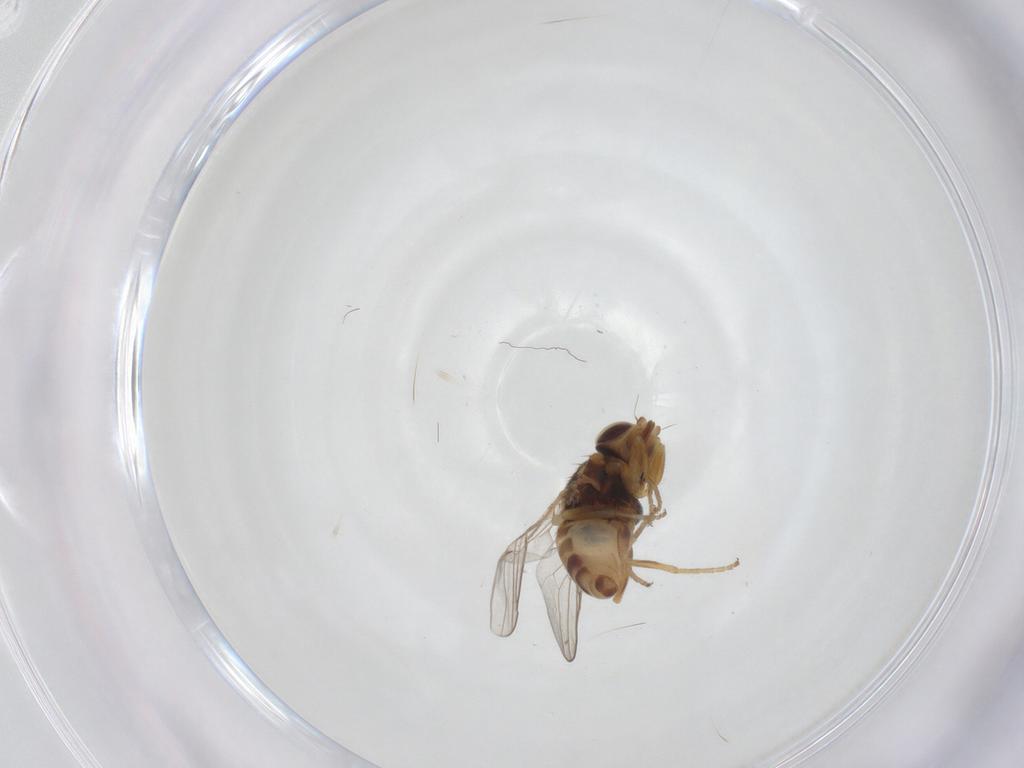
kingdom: Animalia
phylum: Arthropoda
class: Insecta
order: Diptera
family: Chloropidae
